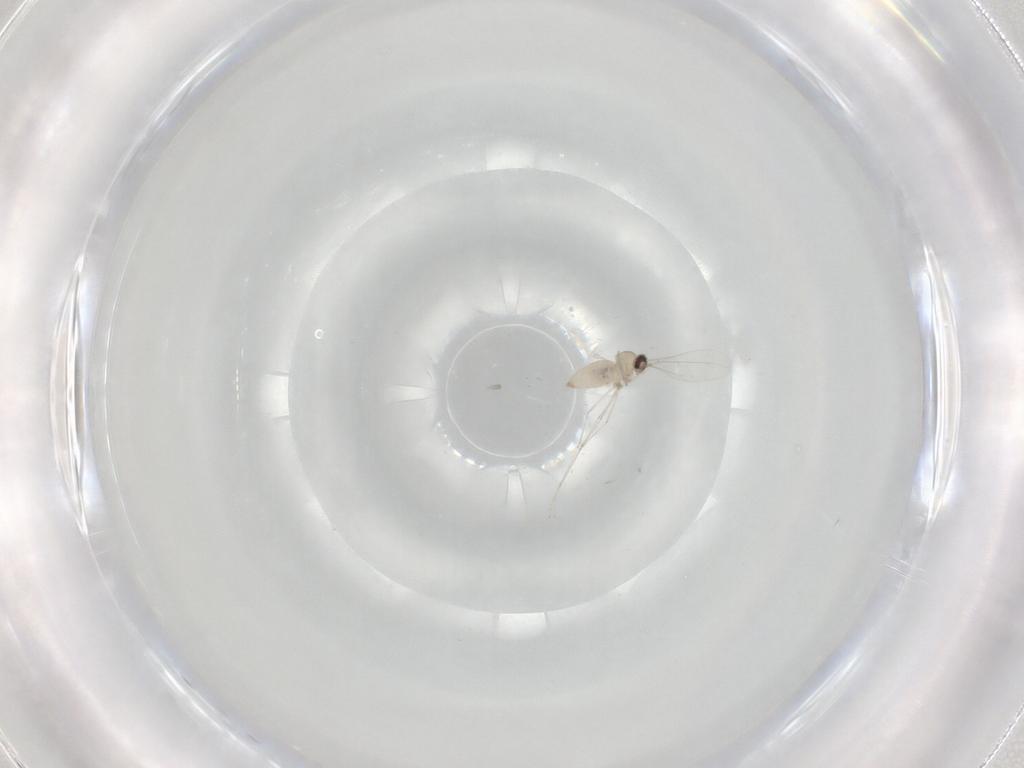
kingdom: Animalia
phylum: Arthropoda
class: Insecta
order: Diptera
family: Cecidomyiidae
